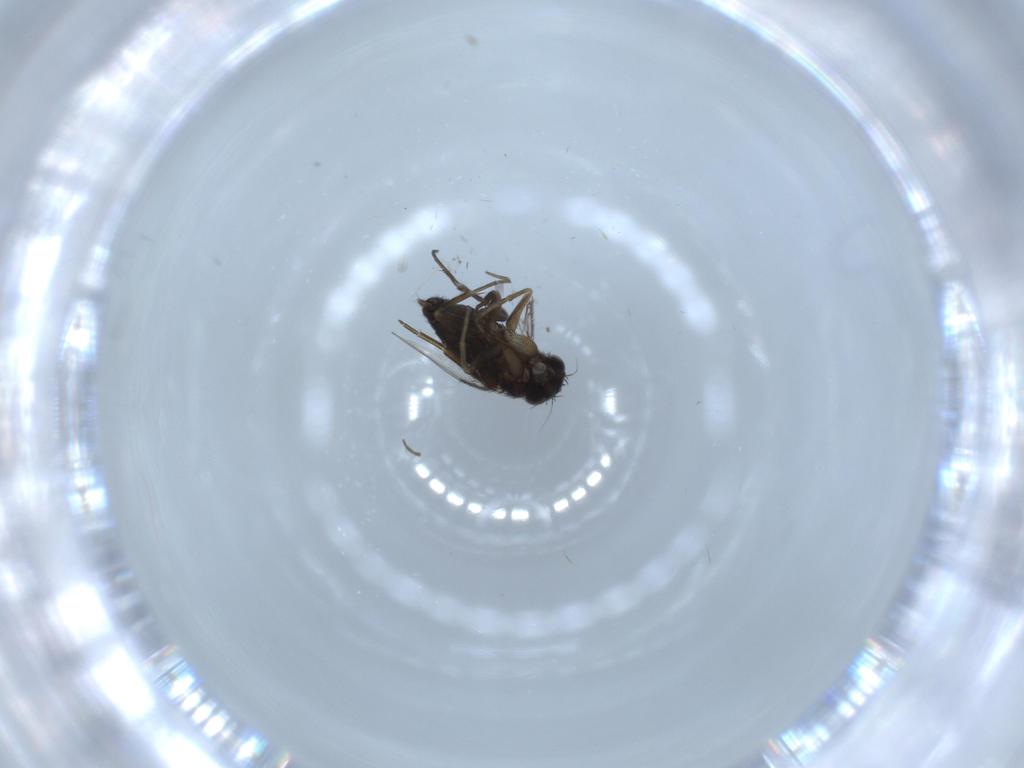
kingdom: Animalia
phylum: Arthropoda
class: Insecta
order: Diptera
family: Phoridae
